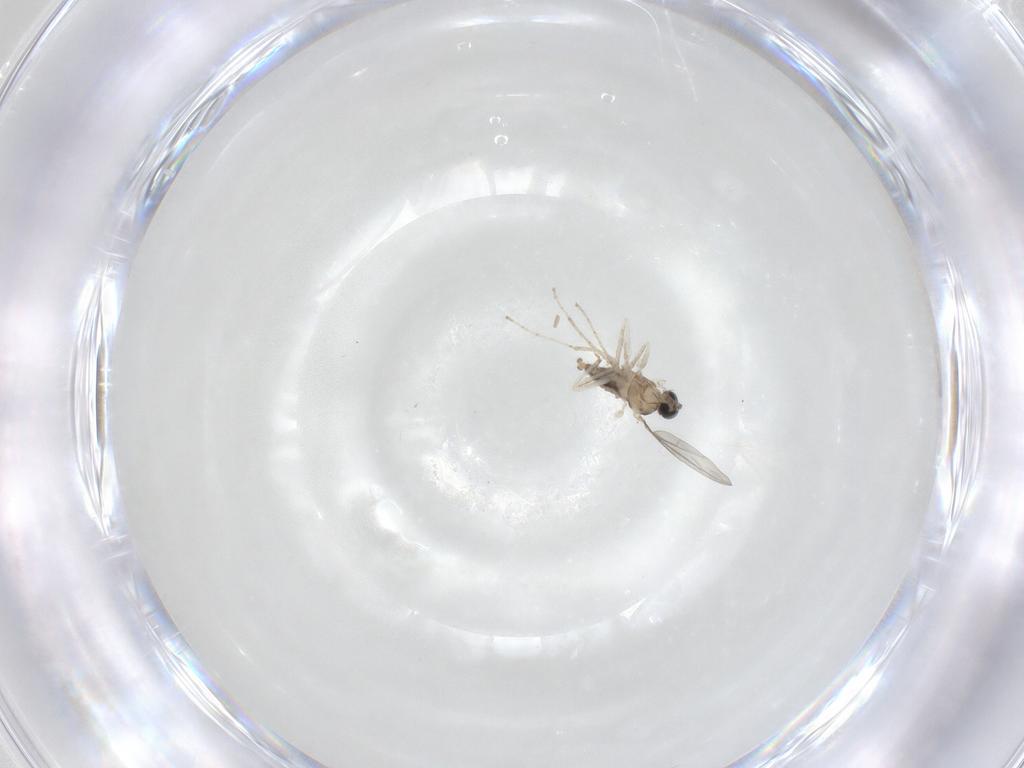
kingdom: Animalia
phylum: Arthropoda
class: Insecta
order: Diptera
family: Cecidomyiidae
